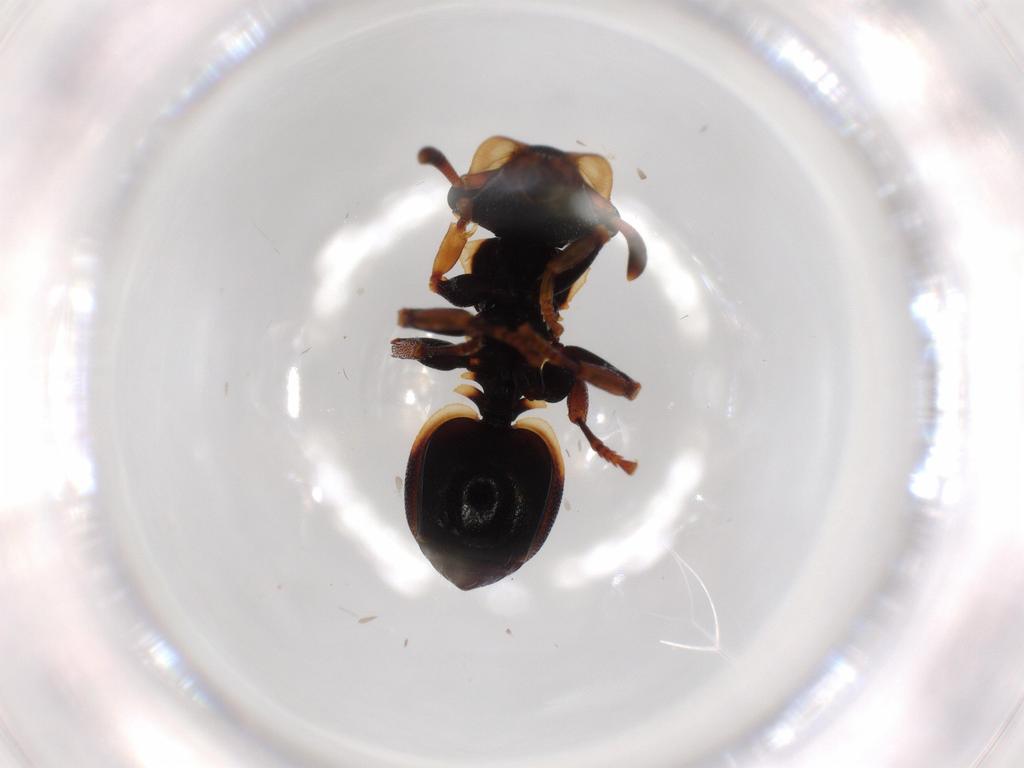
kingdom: Animalia
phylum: Arthropoda
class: Insecta
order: Hymenoptera
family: Formicidae
